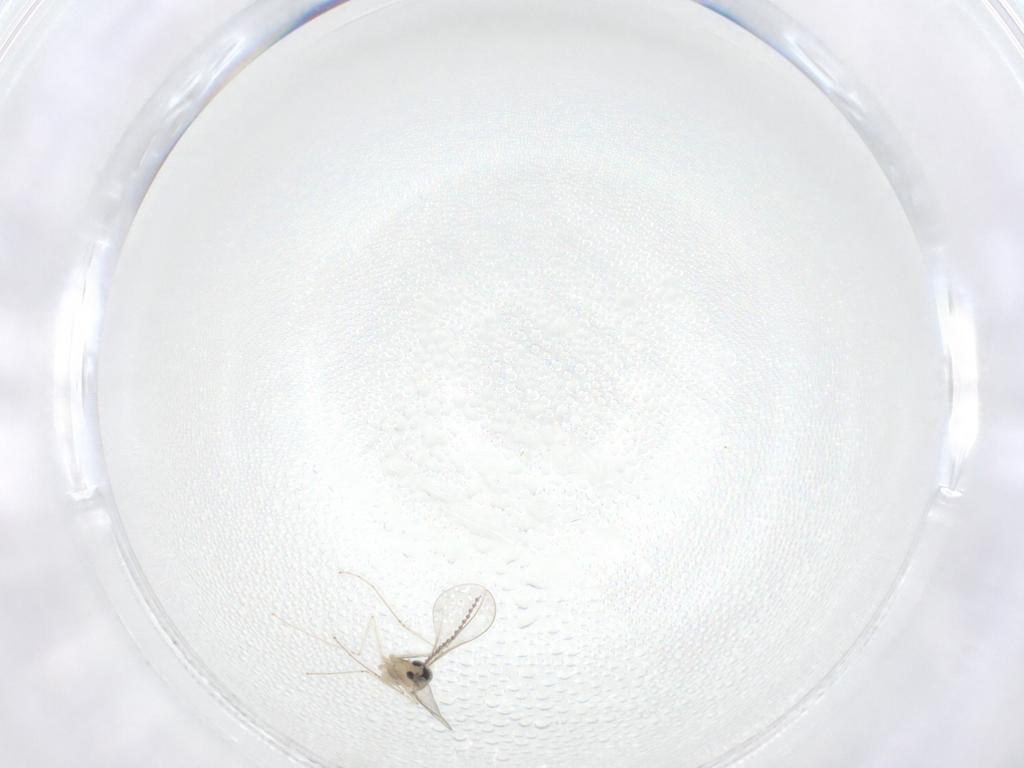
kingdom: Animalia
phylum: Arthropoda
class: Insecta
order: Diptera
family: Cecidomyiidae
